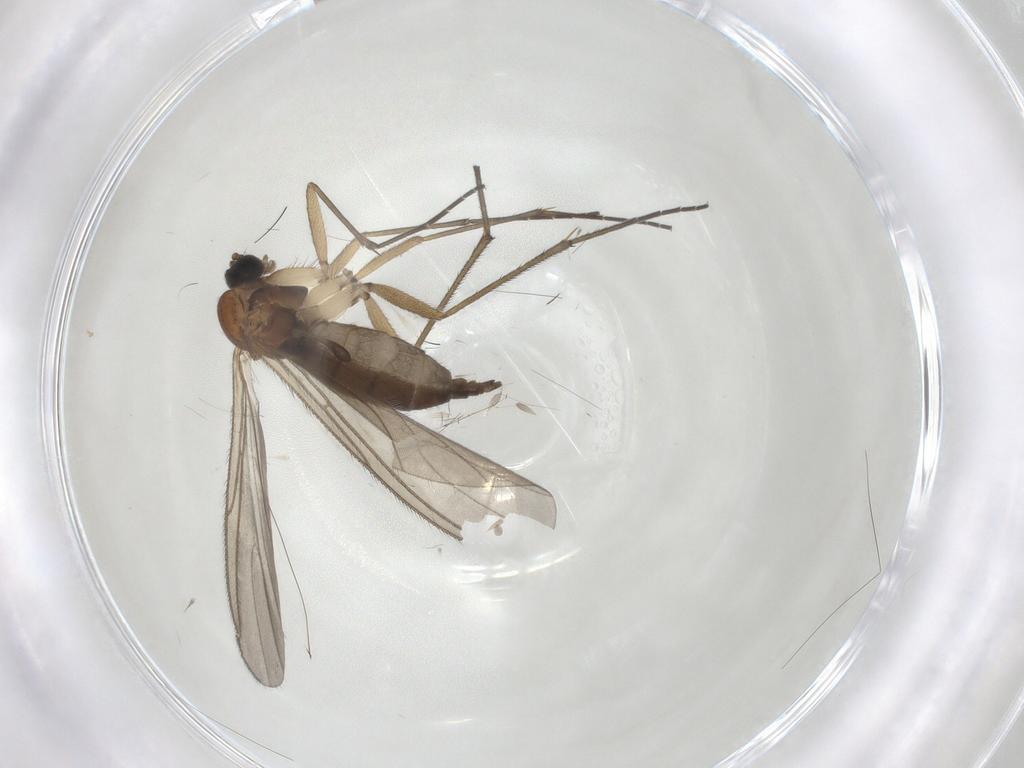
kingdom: Animalia
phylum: Arthropoda
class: Insecta
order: Diptera
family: Sciaridae
